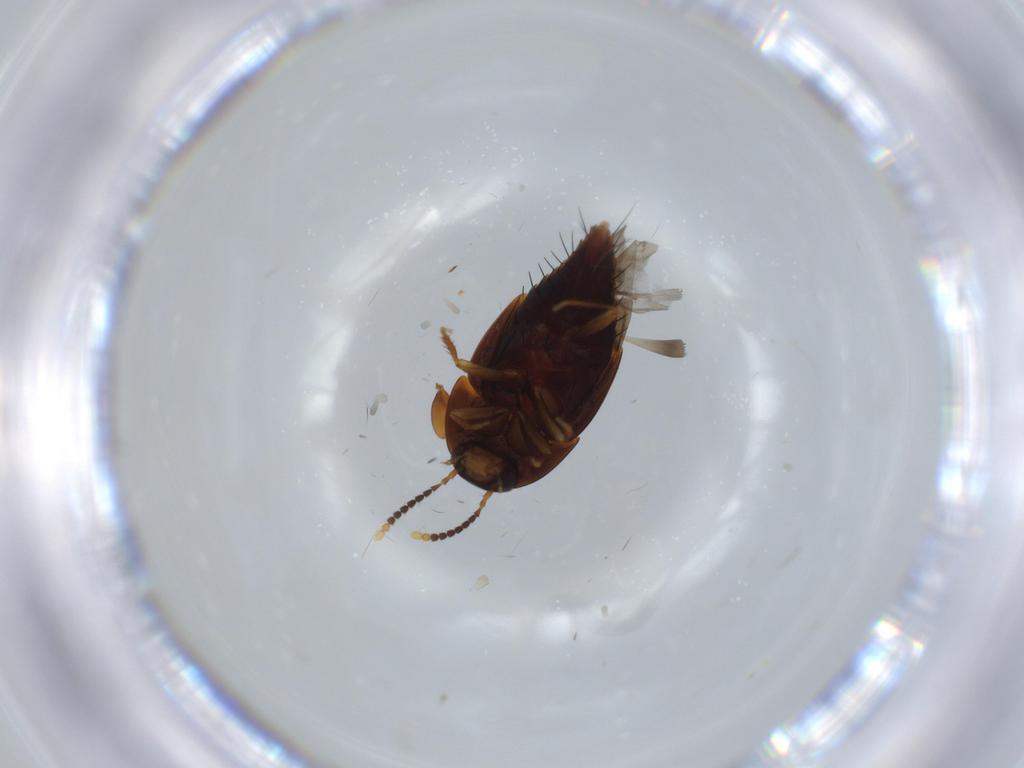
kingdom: Animalia
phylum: Arthropoda
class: Insecta
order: Coleoptera
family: Staphylinidae
